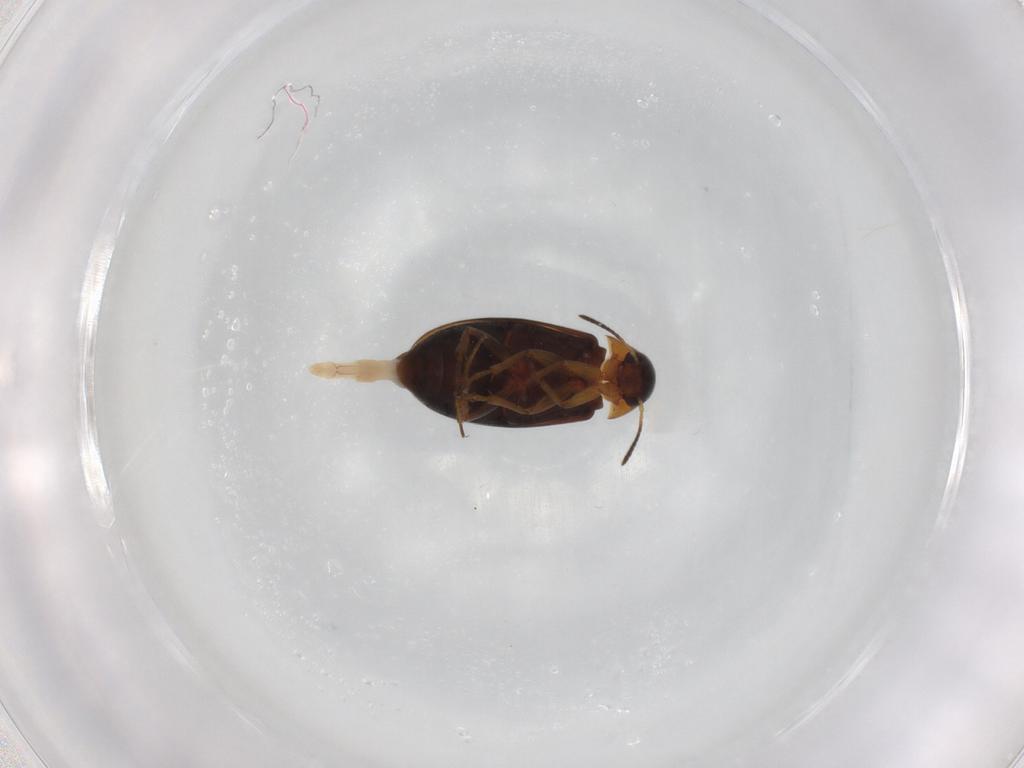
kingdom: Animalia
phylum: Arthropoda
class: Insecta
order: Coleoptera
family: Scraptiidae
